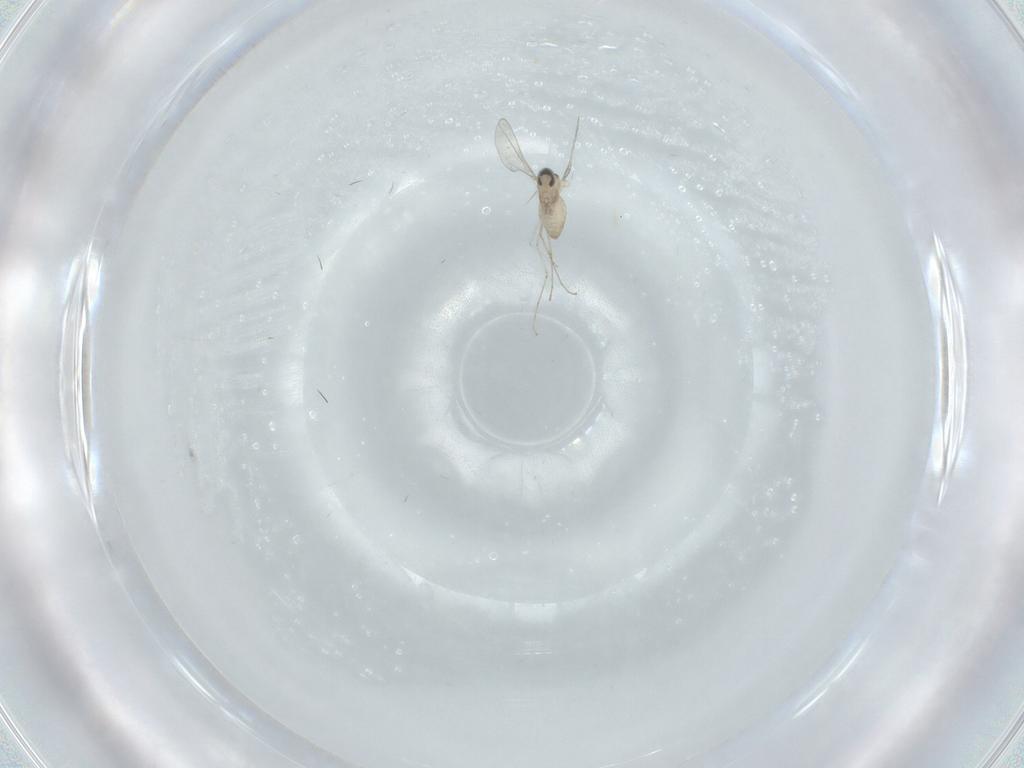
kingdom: Animalia
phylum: Arthropoda
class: Insecta
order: Diptera
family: Cecidomyiidae
